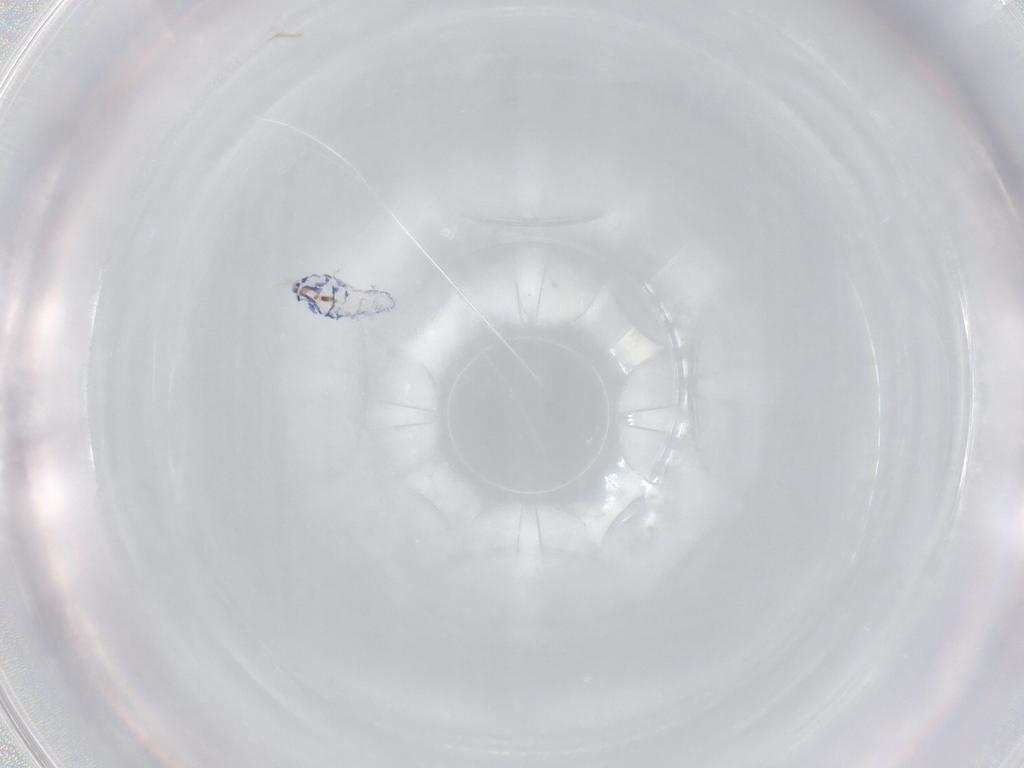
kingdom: Animalia
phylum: Arthropoda
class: Collembola
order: Entomobryomorpha
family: Entomobryidae
